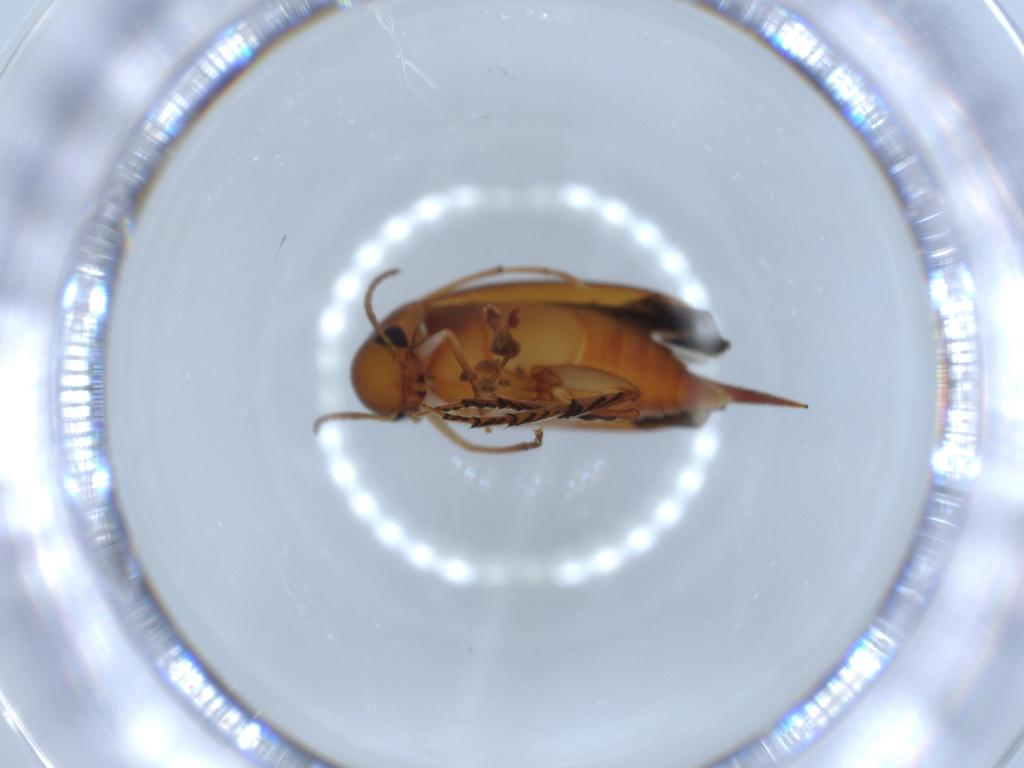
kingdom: Animalia
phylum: Arthropoda
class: Insecta
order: Coleoptera
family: Mordellidae
